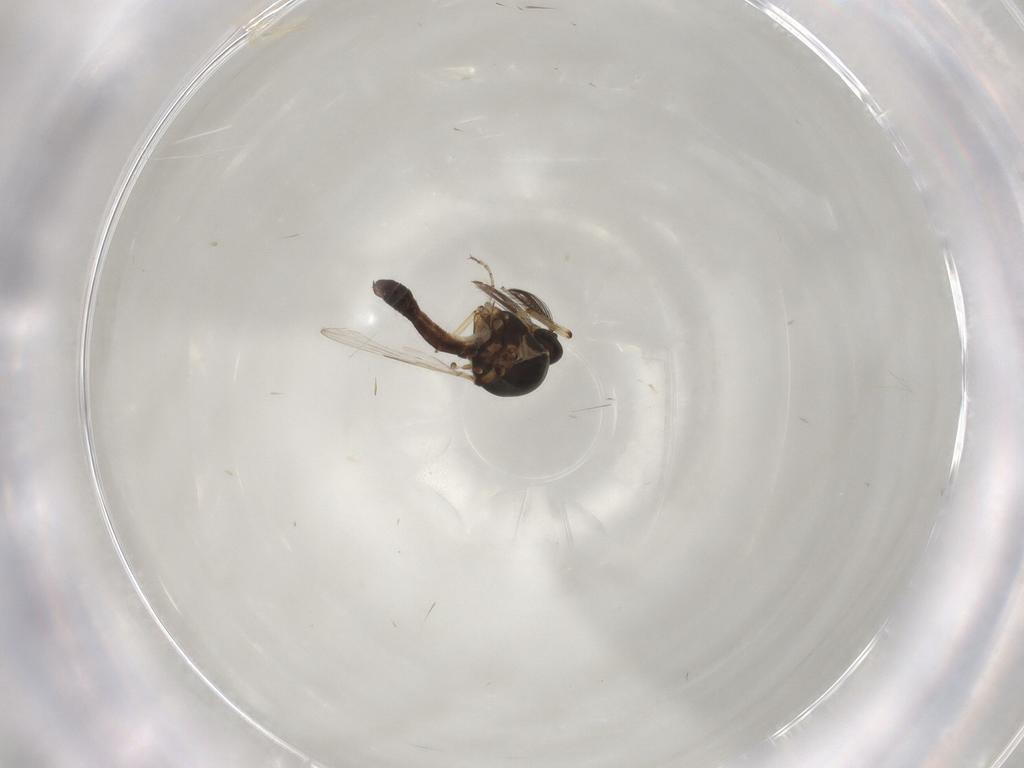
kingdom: Animalia
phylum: Arthropoda
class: Insecta
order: Diptera
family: Ceratopogonidae
